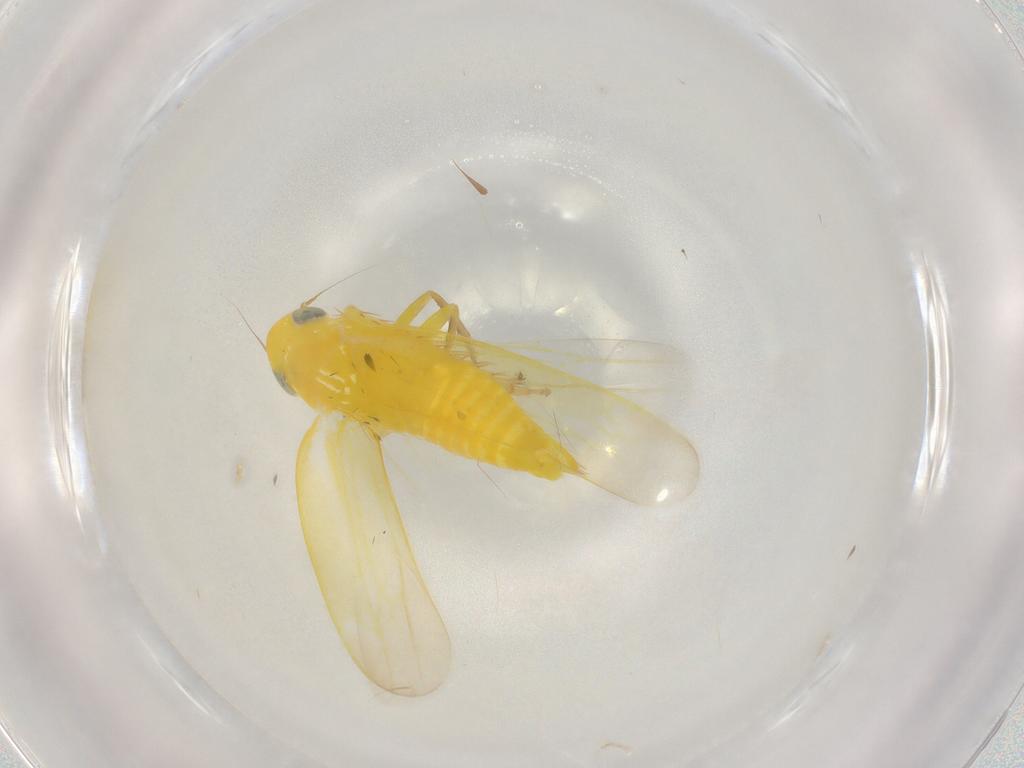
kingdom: Animalia
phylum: Arthropoda
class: Insecta
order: Hemiptera
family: Cicadellidae
